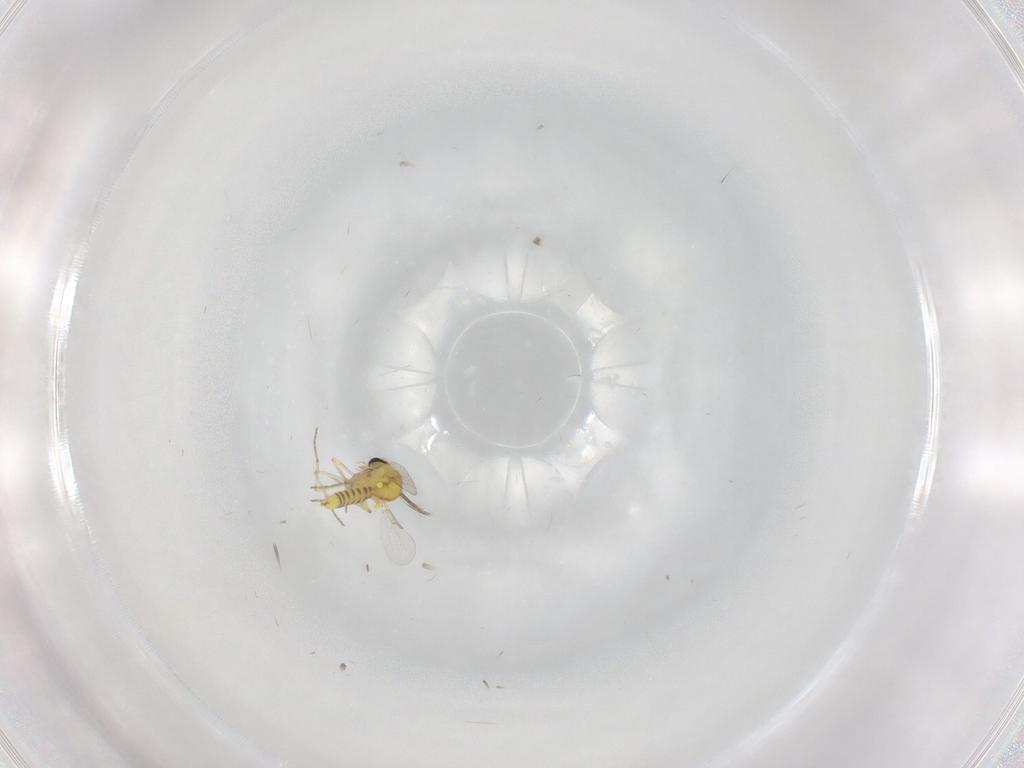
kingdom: Animalia
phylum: Arthropoda
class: Insecta
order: Diptera
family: Ceratopogonidae
